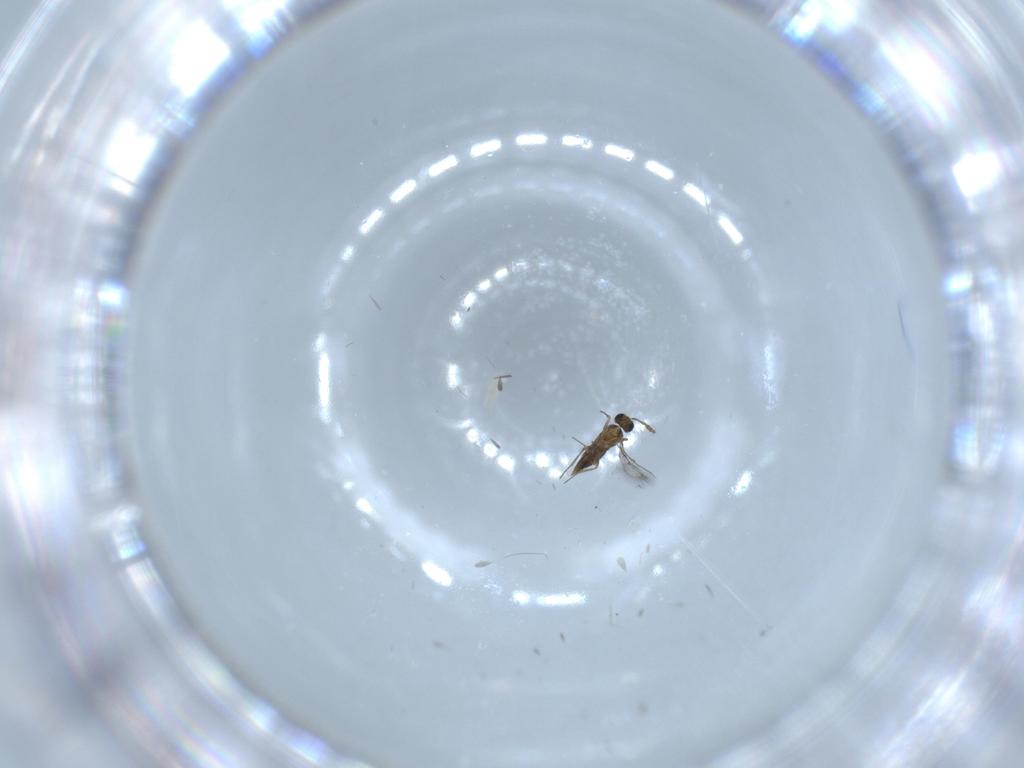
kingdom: Animalia
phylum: Arthropoda
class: Insecta
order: Hymenoptera
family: Trichogrammatidae
